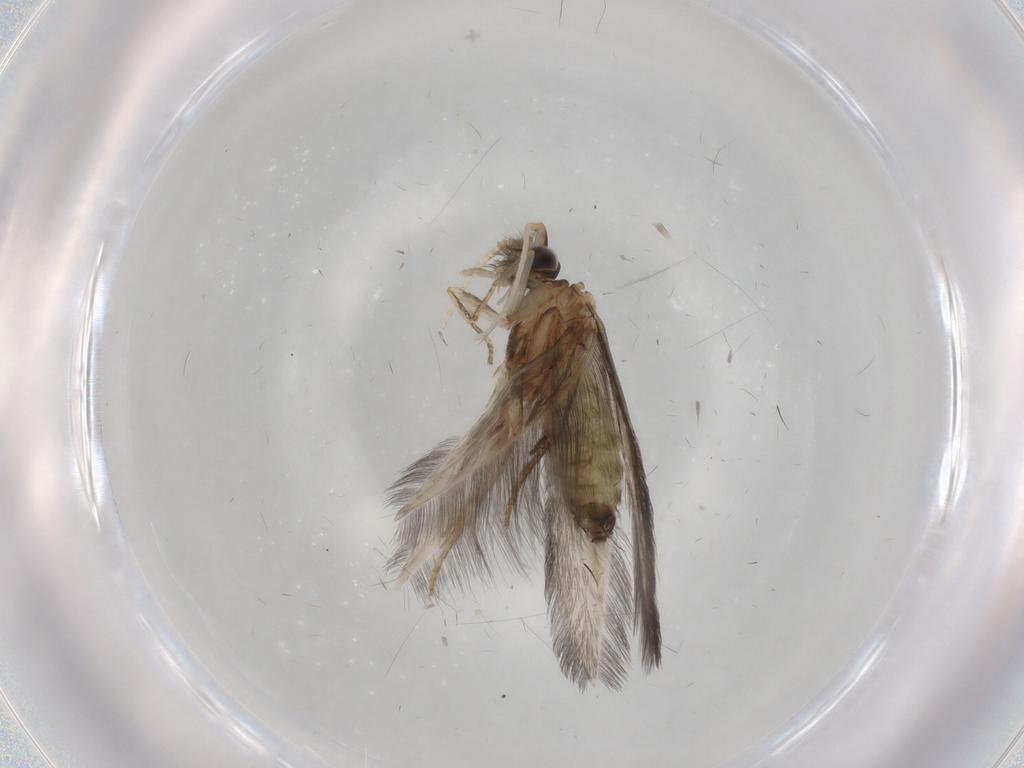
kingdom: Animalia
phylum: Arthropoda
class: Insecta
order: Trichoptera
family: Hydroptilidae
